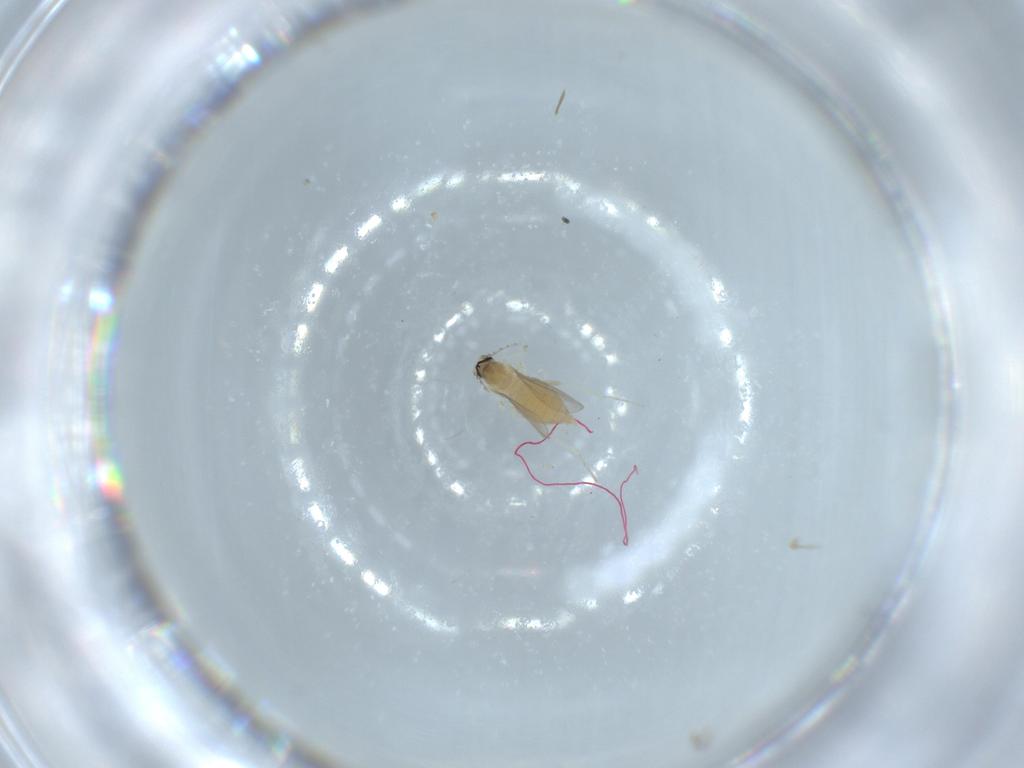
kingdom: Animalia
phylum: Arthropoda
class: Insecta
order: Diptera
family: Cecidomyiidae
